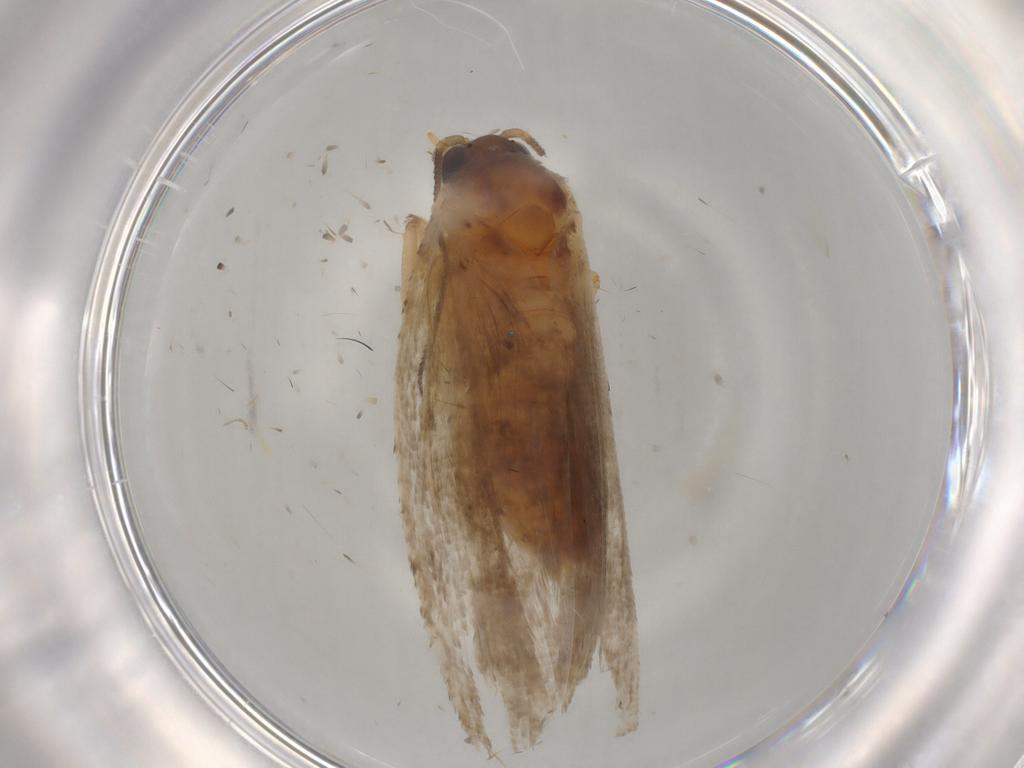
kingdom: Animalia
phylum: Arthropoda
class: Insecta
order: Lepidoptera
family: Tortricidae
